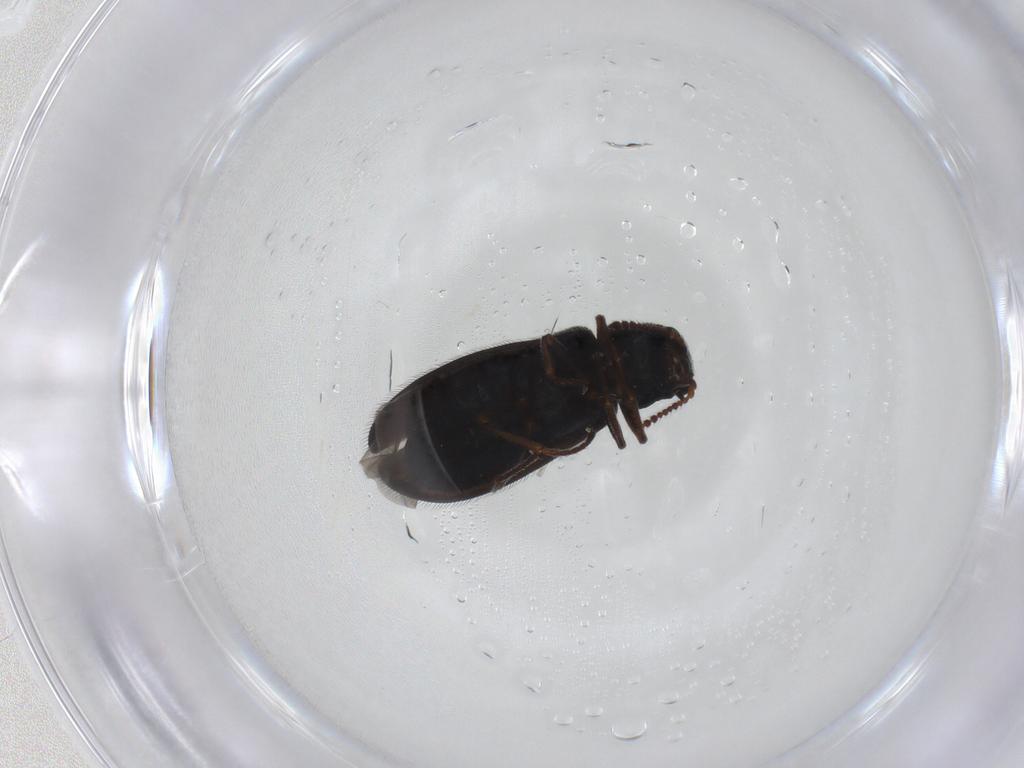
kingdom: Animalia
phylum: Arthropoda
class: Insecta
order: Coleoptera
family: Melyridae
